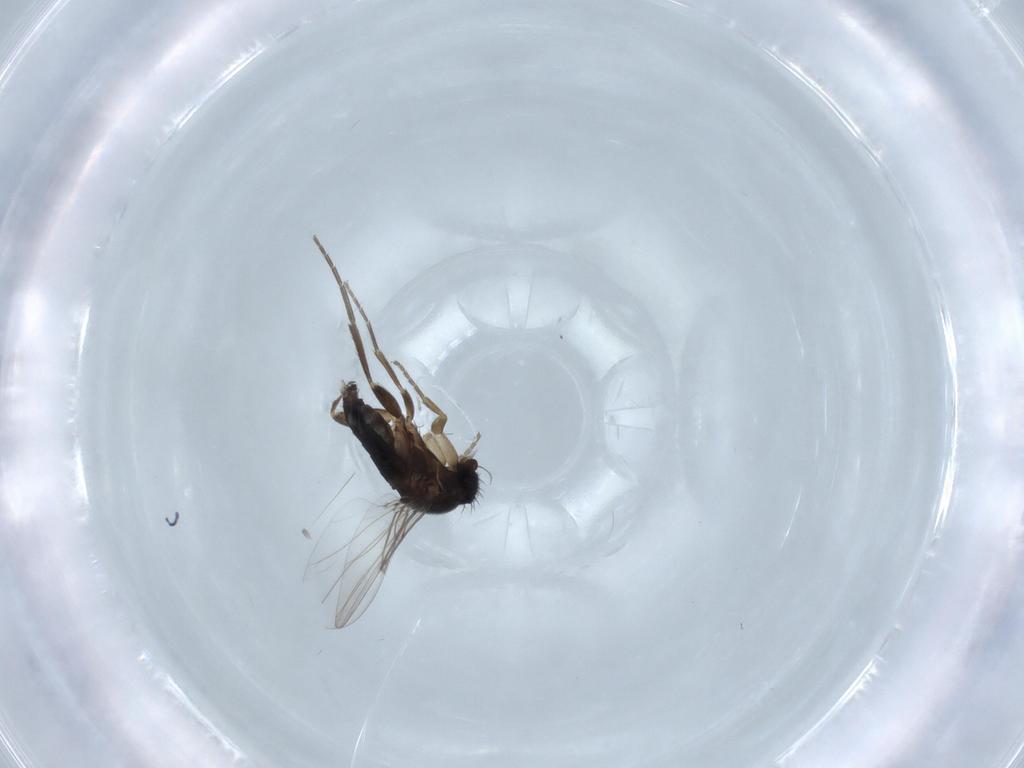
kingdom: Animalia
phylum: Arthropoda
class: Insecta
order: Diptera
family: Phoridae
